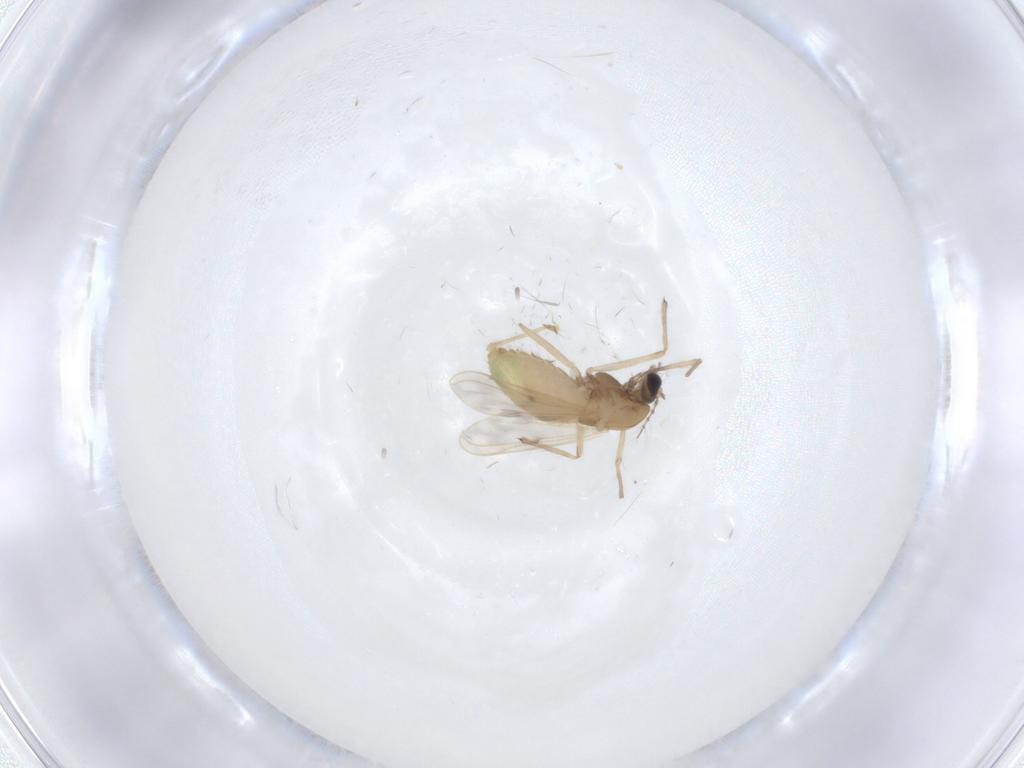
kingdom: Animalia
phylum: Arthropoda
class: Insecta
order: Diptera
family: Chironomidae
